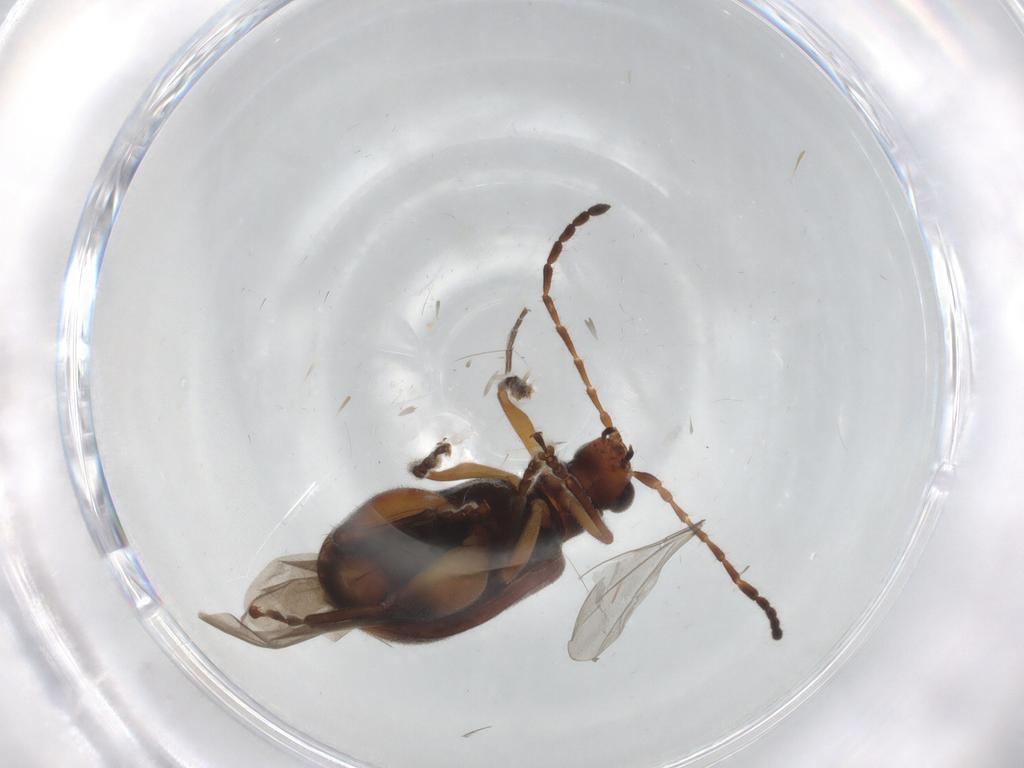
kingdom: Animalia
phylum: Arthropoda
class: Insecta
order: Coleoptera
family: Chrysomelidae
